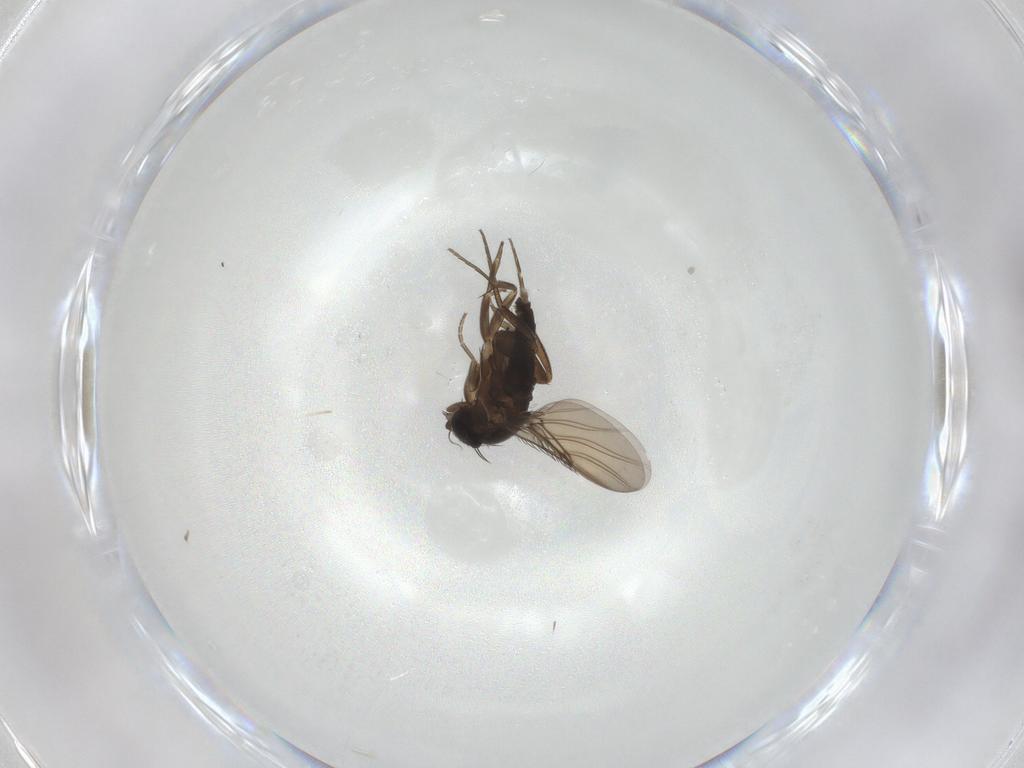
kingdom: Animalia
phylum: Arthropoda
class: Insecta
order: Diptera
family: Phoridae
